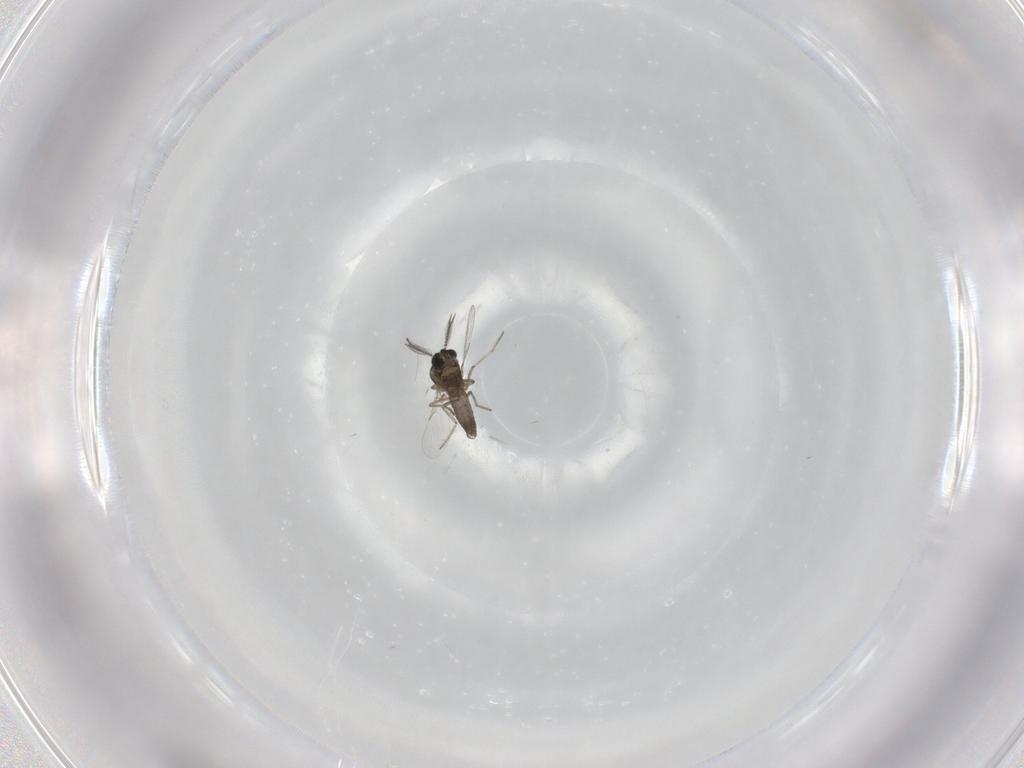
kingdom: Animalia
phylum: Arthropoda
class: Insecta
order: Diptera
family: Ceratopogonidae
